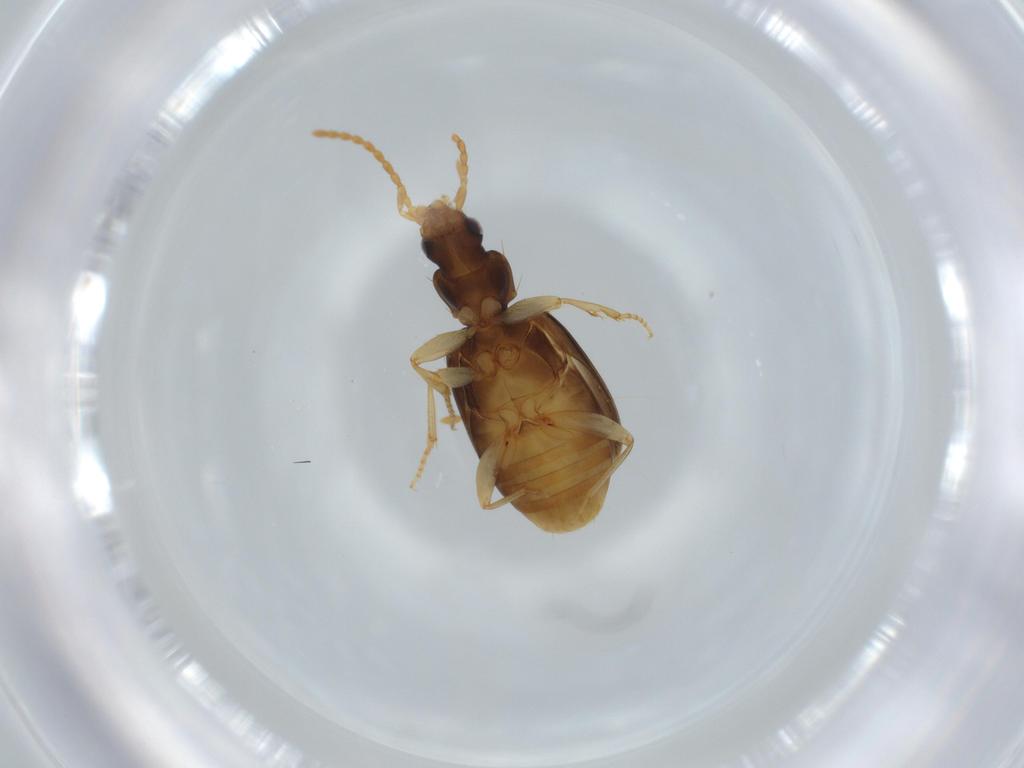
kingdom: Animalia
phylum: Arthropoda
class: Insecta
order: Coleoptera
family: Carabidae
